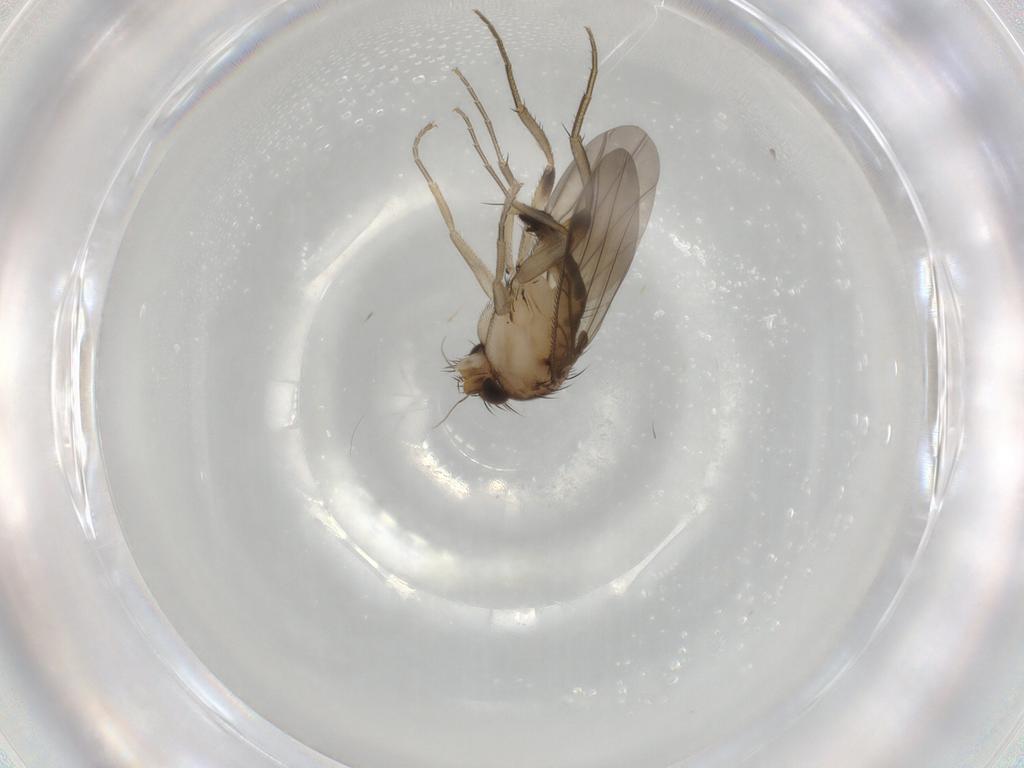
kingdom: Animalia
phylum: Arthropoda
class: Insecta
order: Diptera
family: Phoridae
